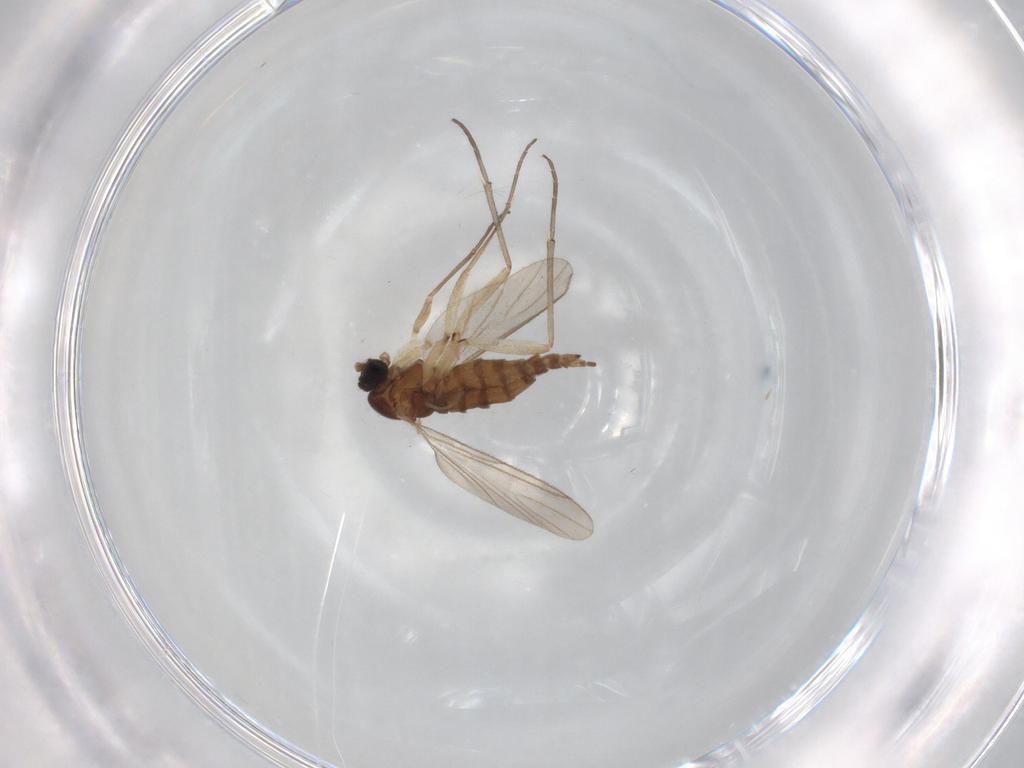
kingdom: Animalia
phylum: Arthropoda
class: Insecta
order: Diptera
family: Sciaridae
